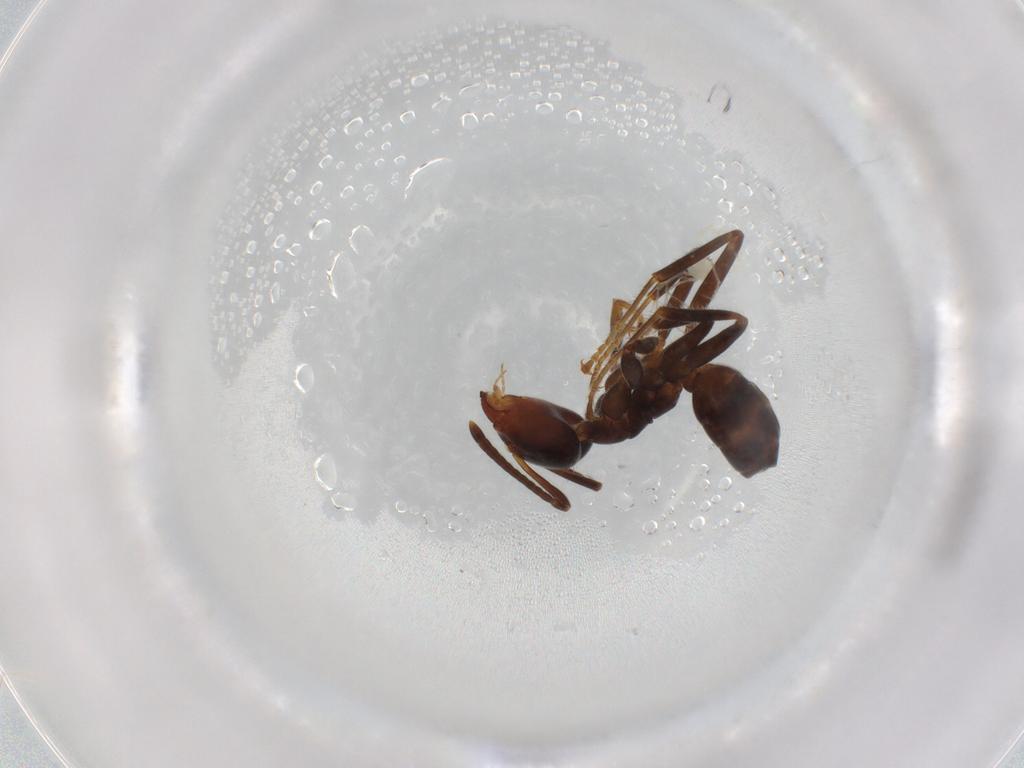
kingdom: Animalia
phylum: Arthropoda
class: Insecta
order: Hymenoptera
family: Formicidae
